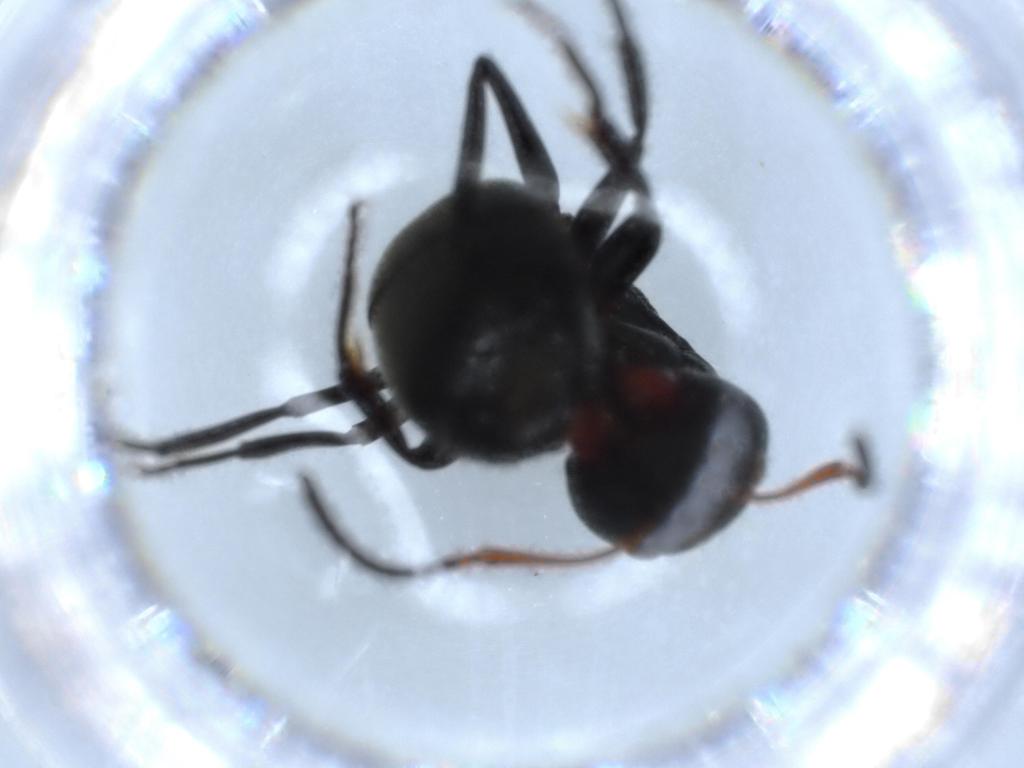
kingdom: Animalia
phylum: Arthropoda
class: Insecta
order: Hymenoptera
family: Formicidae
